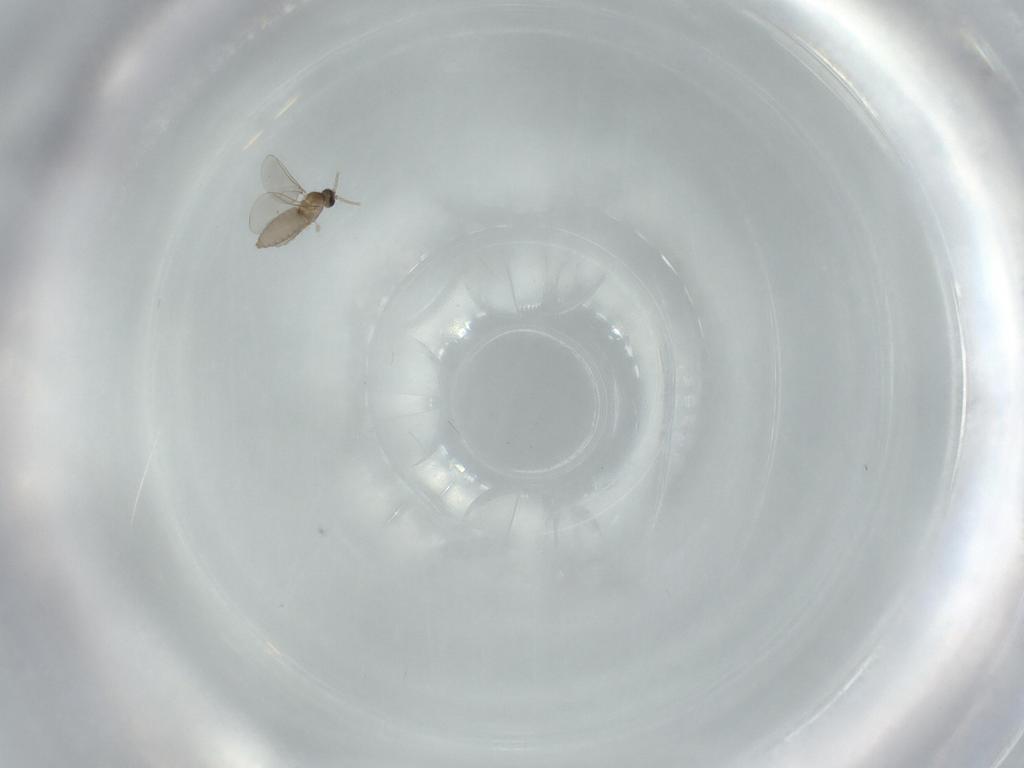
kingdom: Animalia
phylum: Arthropoda
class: Insecta
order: Diptera
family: Cecidomyiidae
